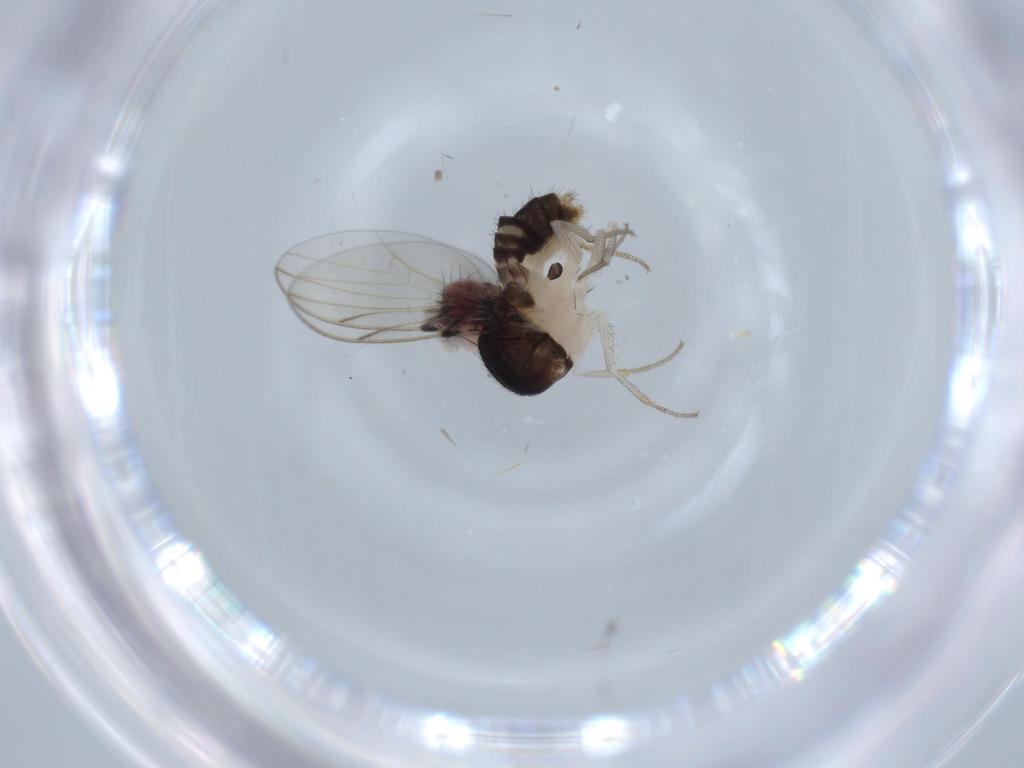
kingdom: Animalia
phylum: Arthropoda
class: Insecta
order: Diptera
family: Drosophilidae
